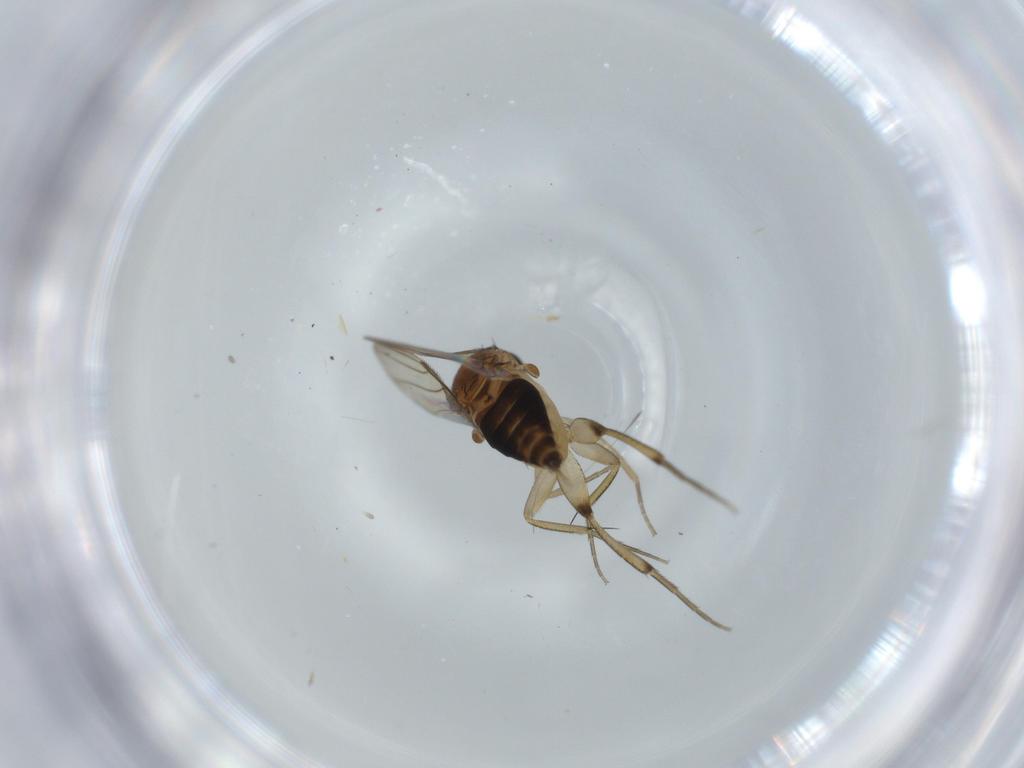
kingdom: Animalia
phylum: Arthropoda
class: Insecta
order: Diptera
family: Sphaeroceridae
